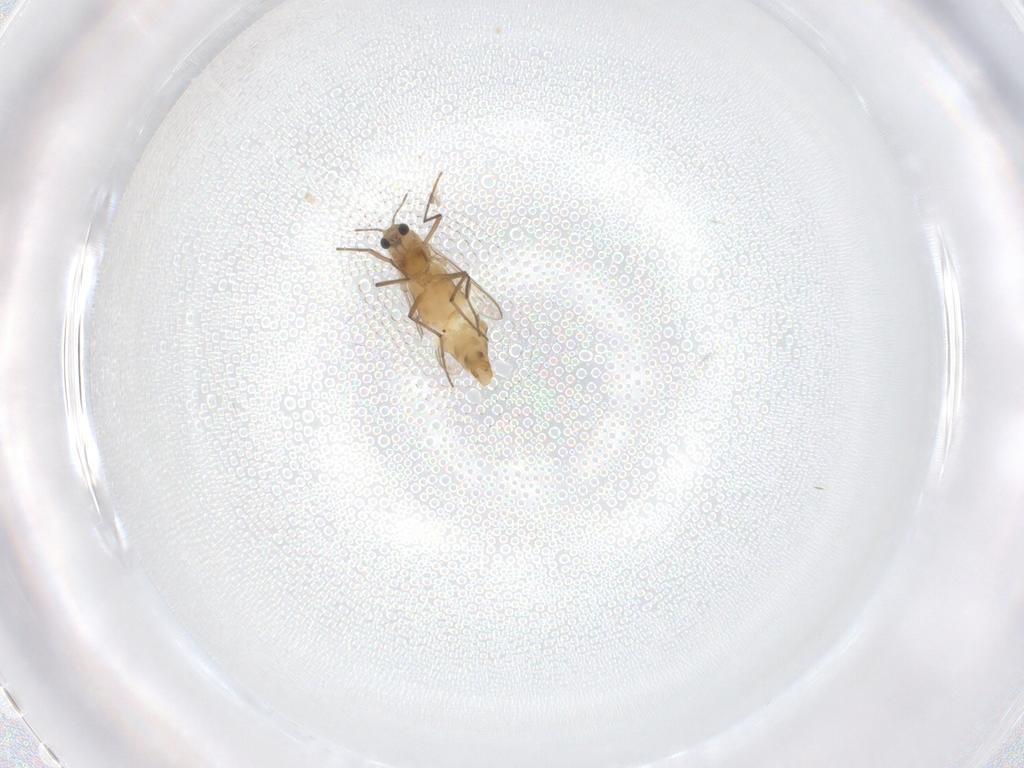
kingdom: Animalia
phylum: Arthropoda
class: Insecta
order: Diptera
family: Chironomidae
